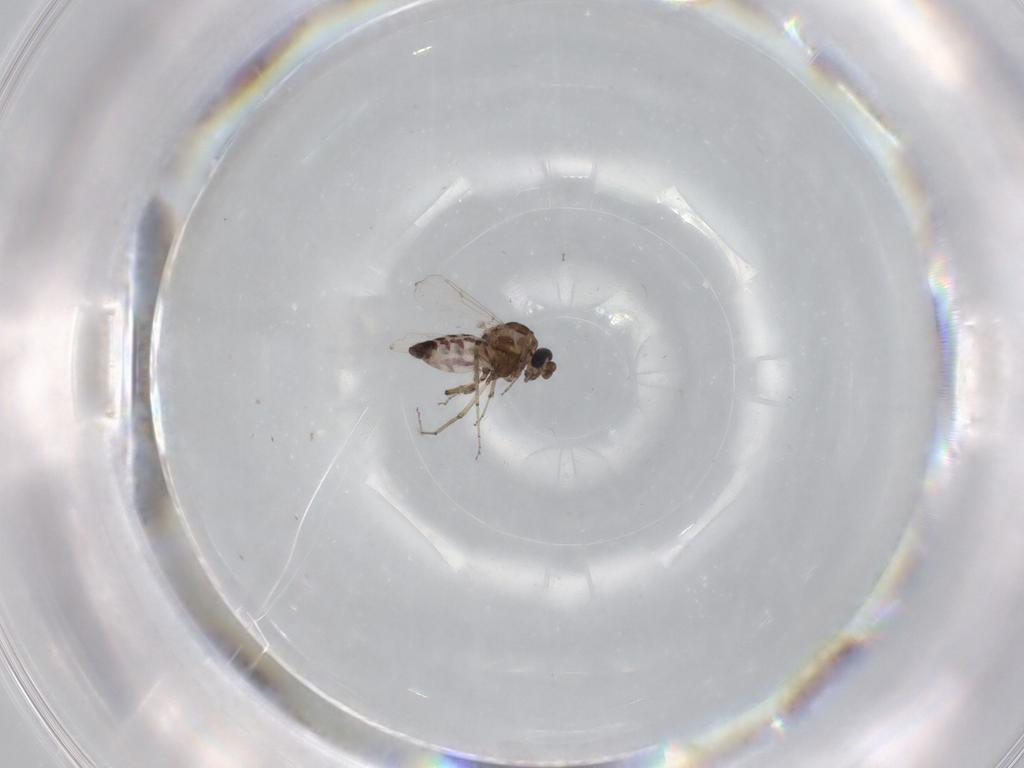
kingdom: Animalia
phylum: Arthropoda
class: Insecta
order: Diptera
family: Ceratopogonidae
